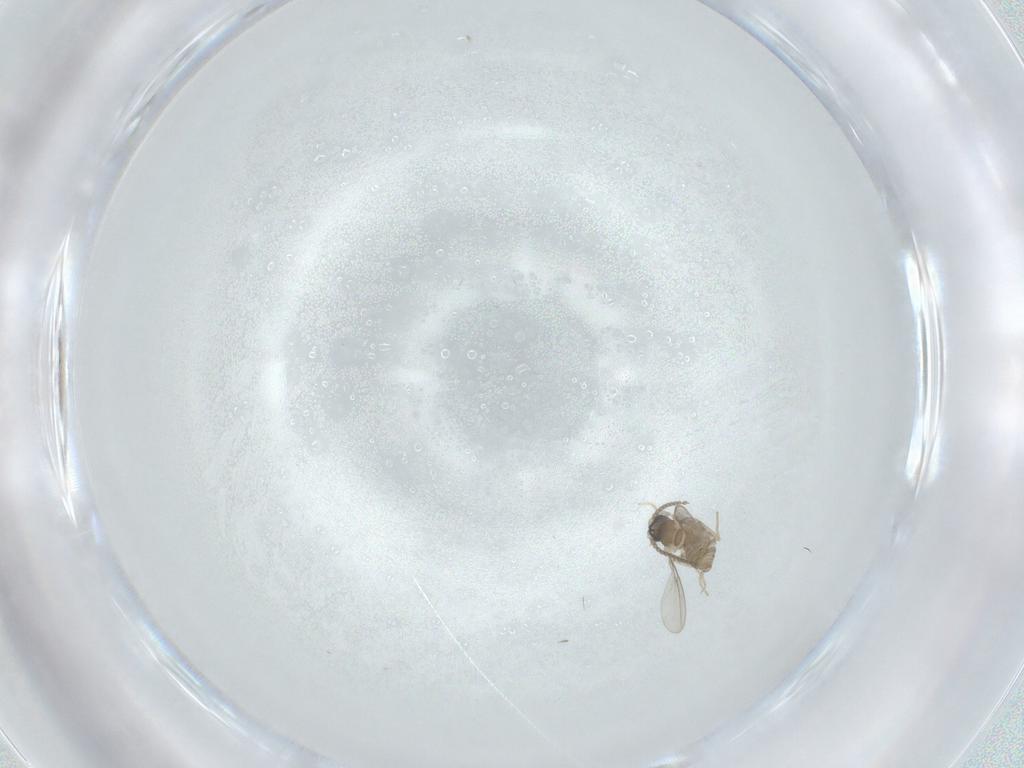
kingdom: Animalia
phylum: Arthropoda
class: Insecta
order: Diptera
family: Cecidomyiidae
